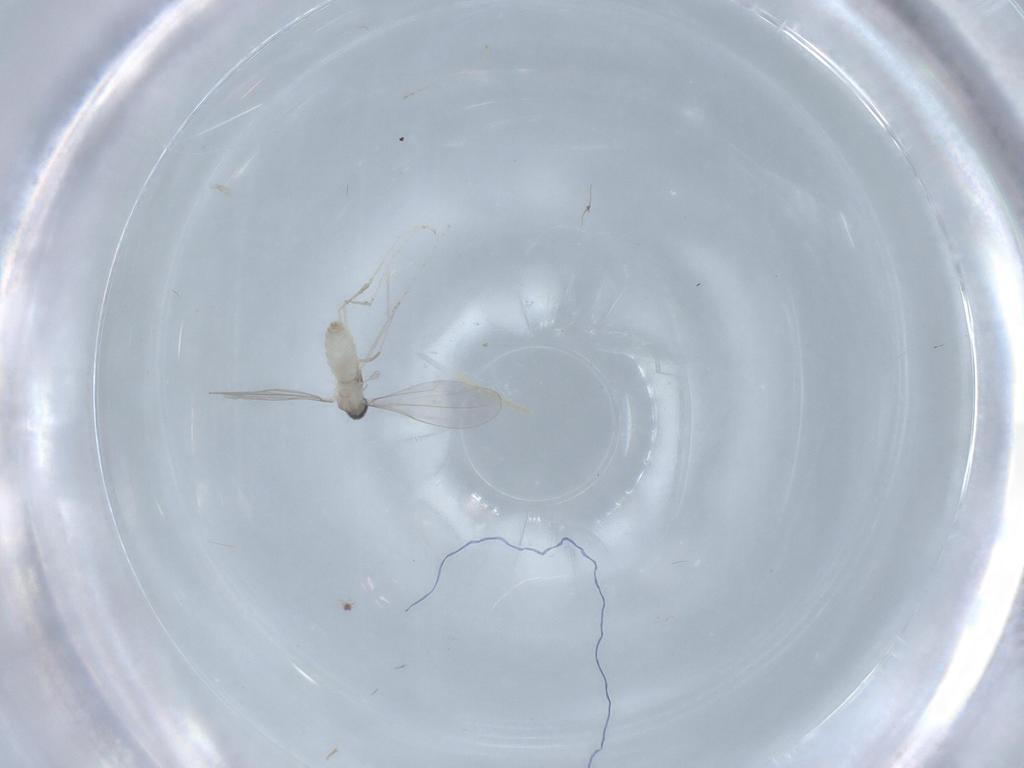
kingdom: Animalia
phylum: Arthropoda
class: Insecta
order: Diptera
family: Cecidomyiidae
